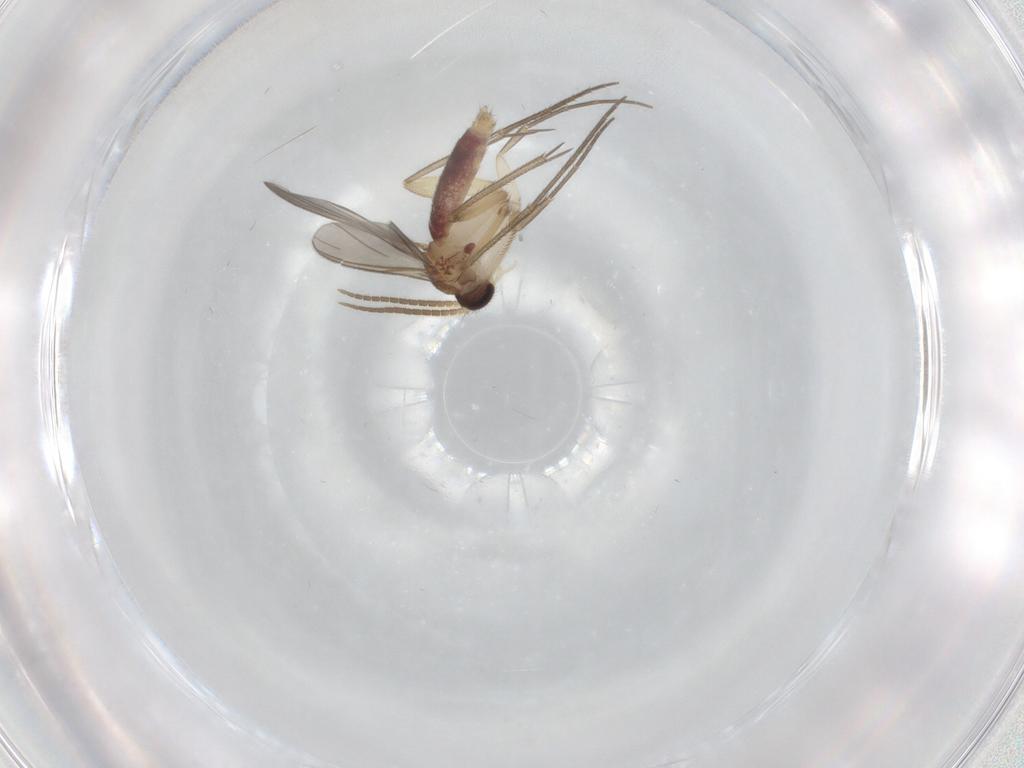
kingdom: Animalia
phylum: Arthropoda
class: Insecta
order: Diptera
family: Mycetophilidae
